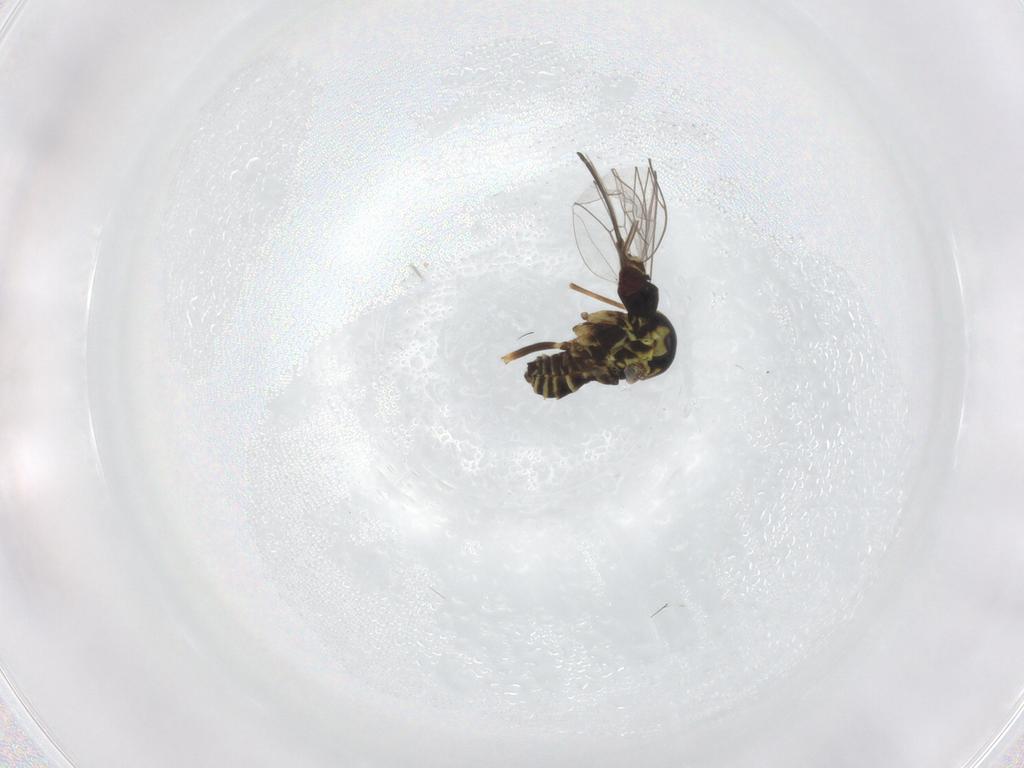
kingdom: Animalia
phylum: Arthropoda
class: Insecta
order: Diptera
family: Bombyliidae
